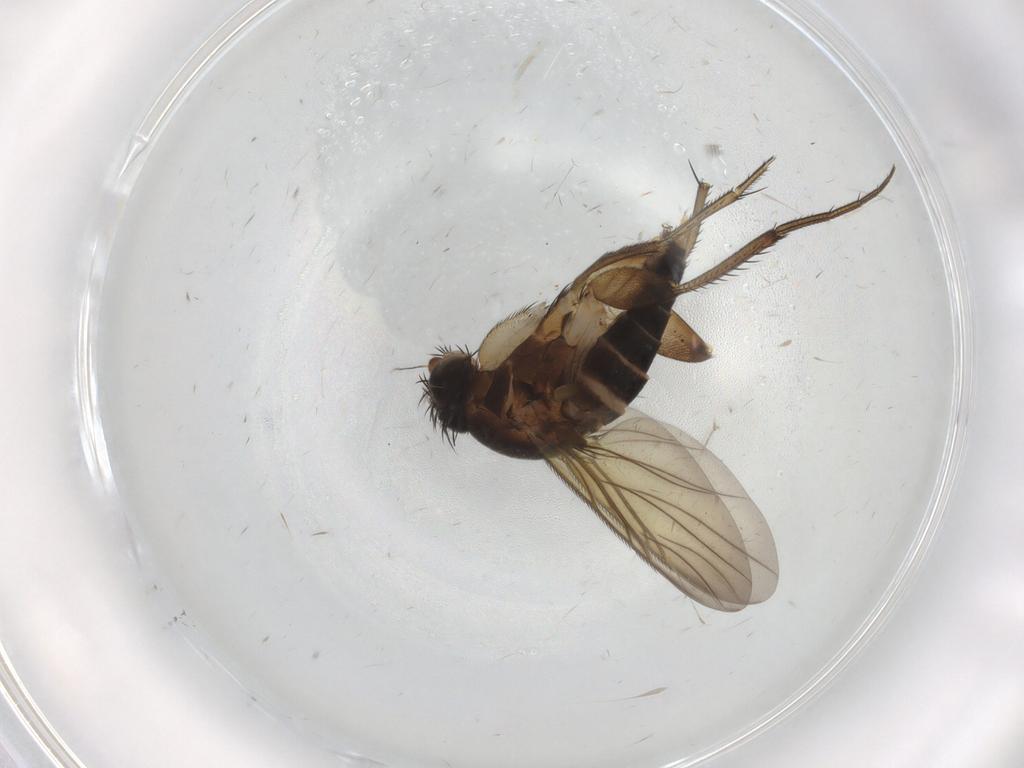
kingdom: Animalia
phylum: Arthropoda
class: Insecta
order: Diptera
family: Phoridae
